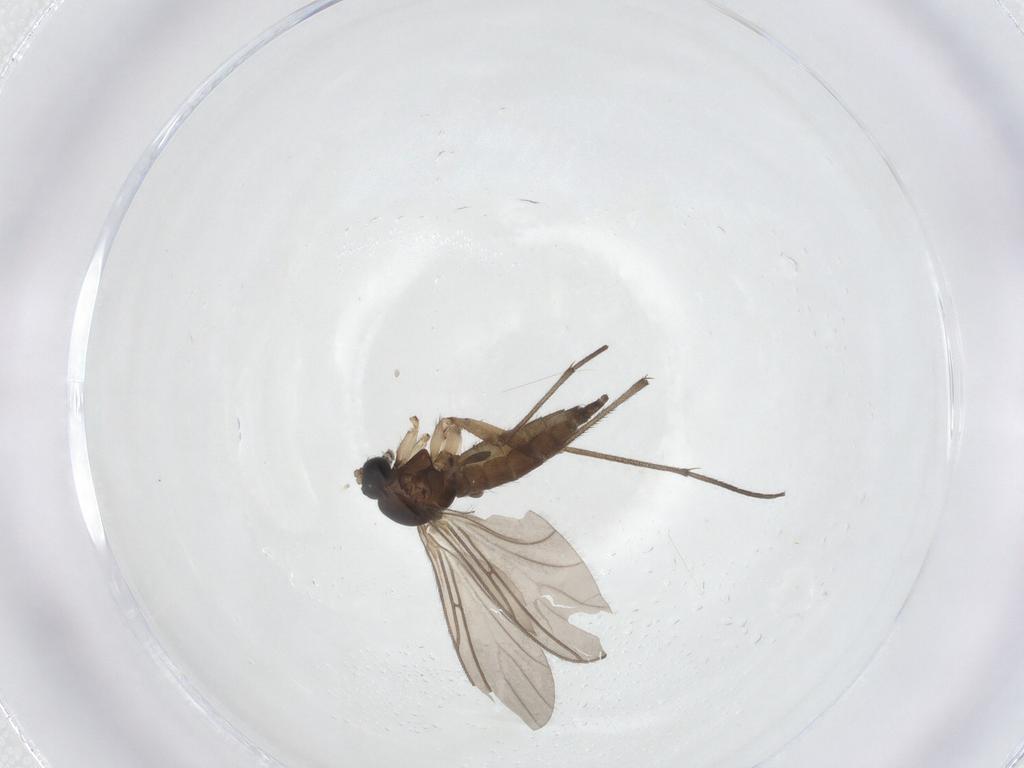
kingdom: Animalia
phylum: Arthropoda
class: Insecta
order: Diptera
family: Sciaridae
